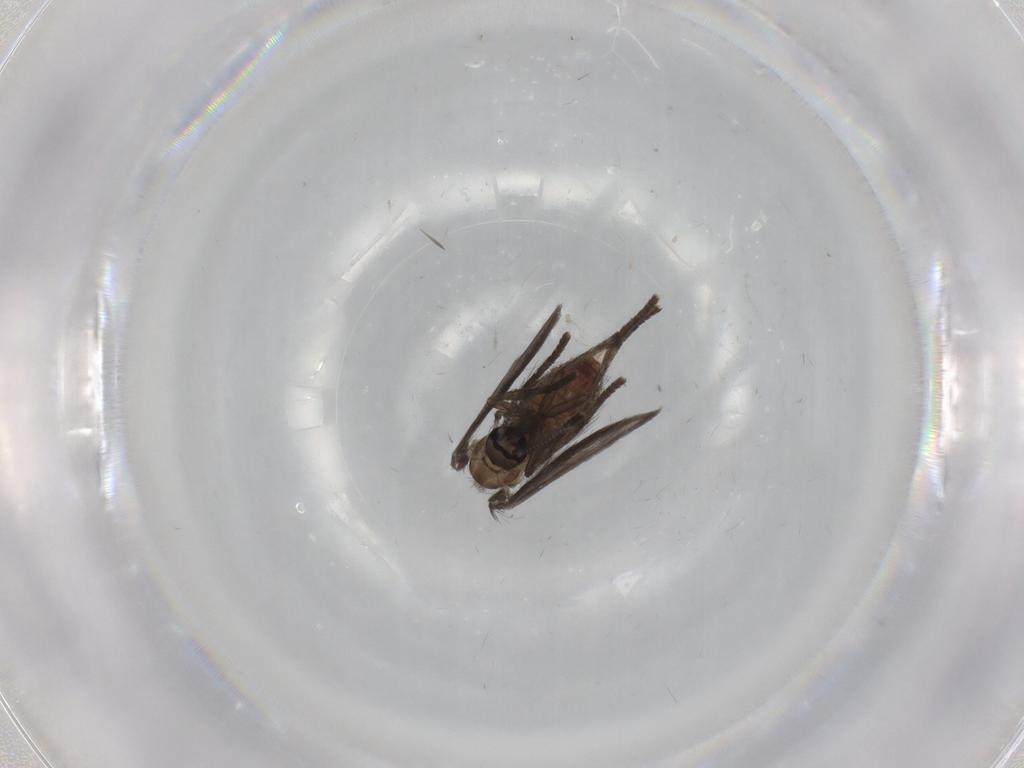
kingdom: Animalia
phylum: Arthropoda
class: Insecta
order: Diptera
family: Psychodidae
